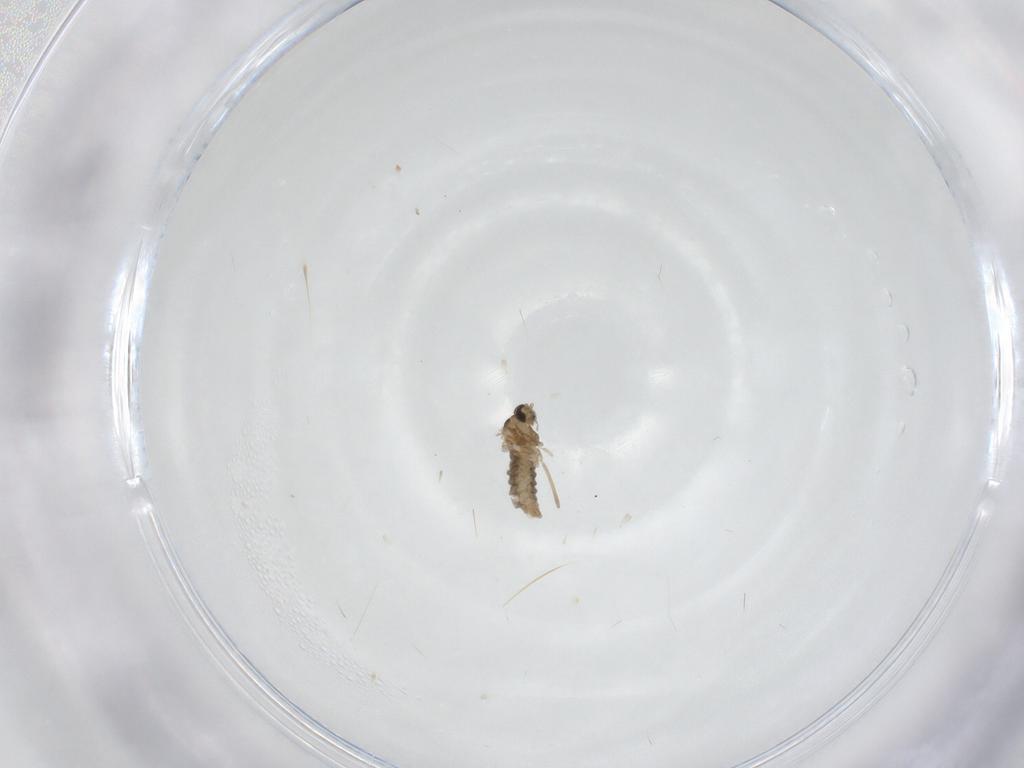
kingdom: Animalia
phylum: Arthropoda
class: Insecta
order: Diptera
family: Cecidomyiidae
